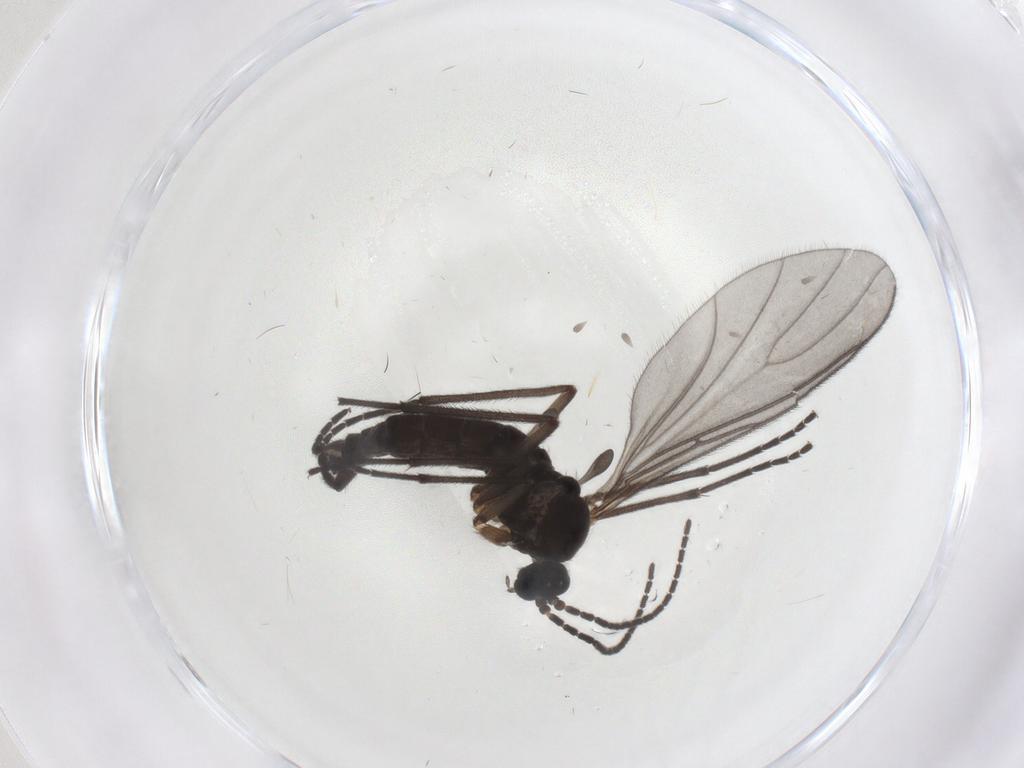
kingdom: Animalia
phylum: Arthropoda
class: Insecta
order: Diptera
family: Sciaridae
